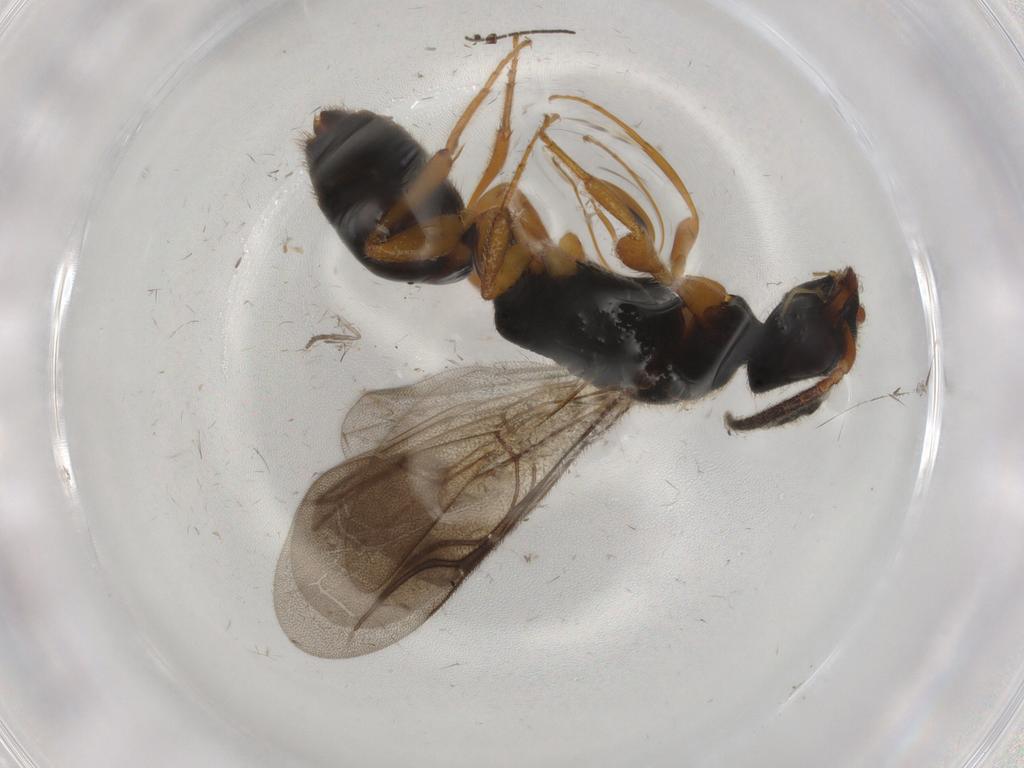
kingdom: Animalia
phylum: Arthropoda
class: Insecta
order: Hymenoptera
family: Bethylidae
